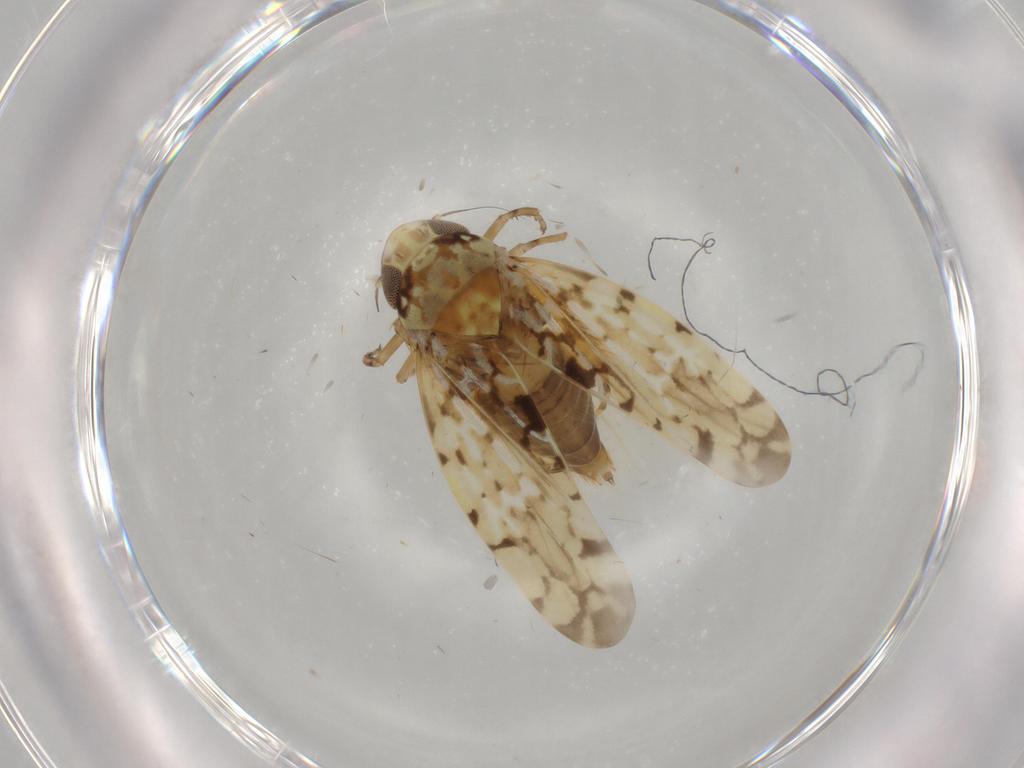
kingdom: Animalia
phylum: Arthropoda
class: Insecta
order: Hemiptera
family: Cicadellidae
